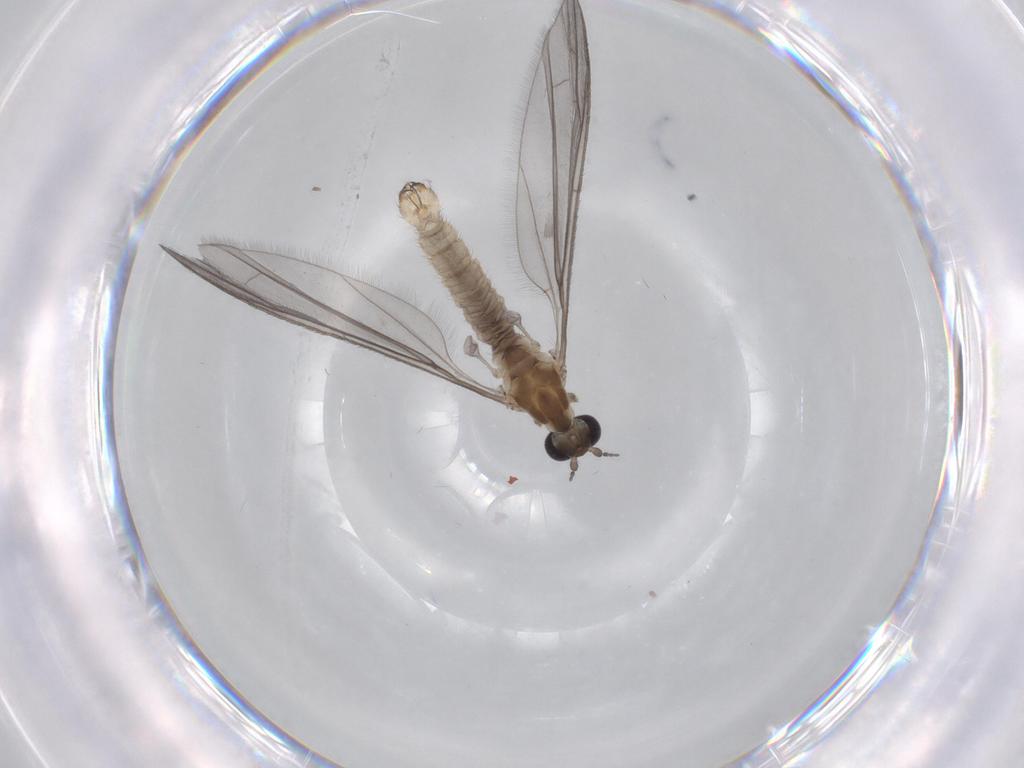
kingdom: Animalia
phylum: Arthropoda
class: Insecta
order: Diptera
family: Limoniidae
